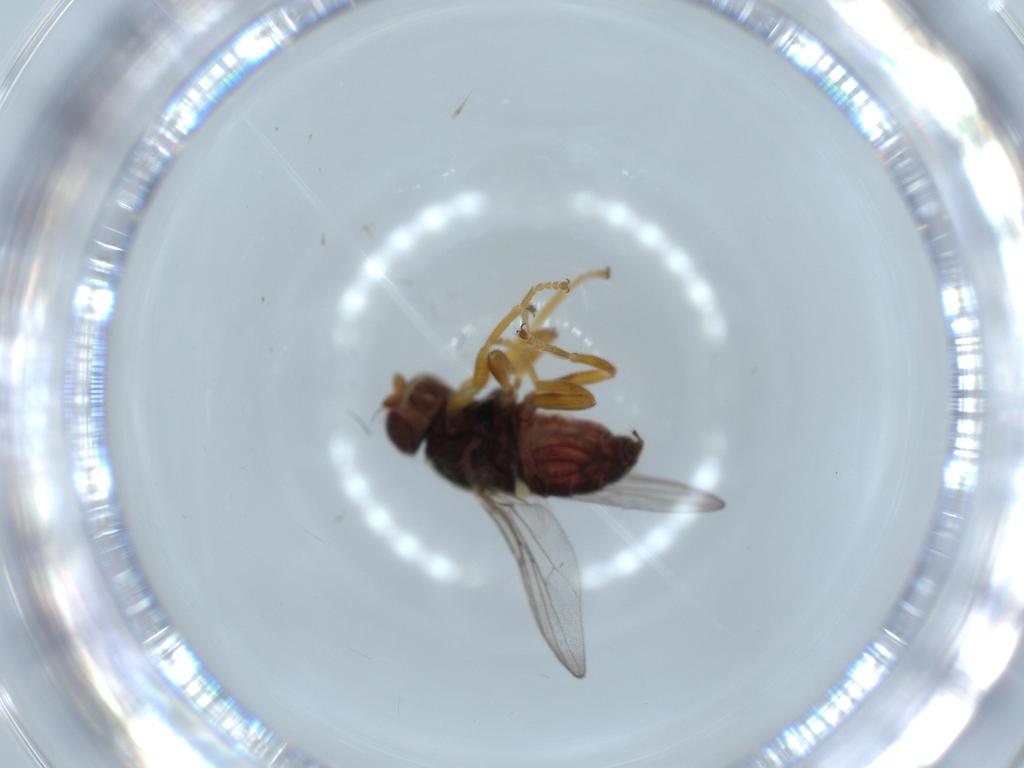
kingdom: Animalia
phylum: Arthropoda
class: Insecta
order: Diptera
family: Chloropidae
